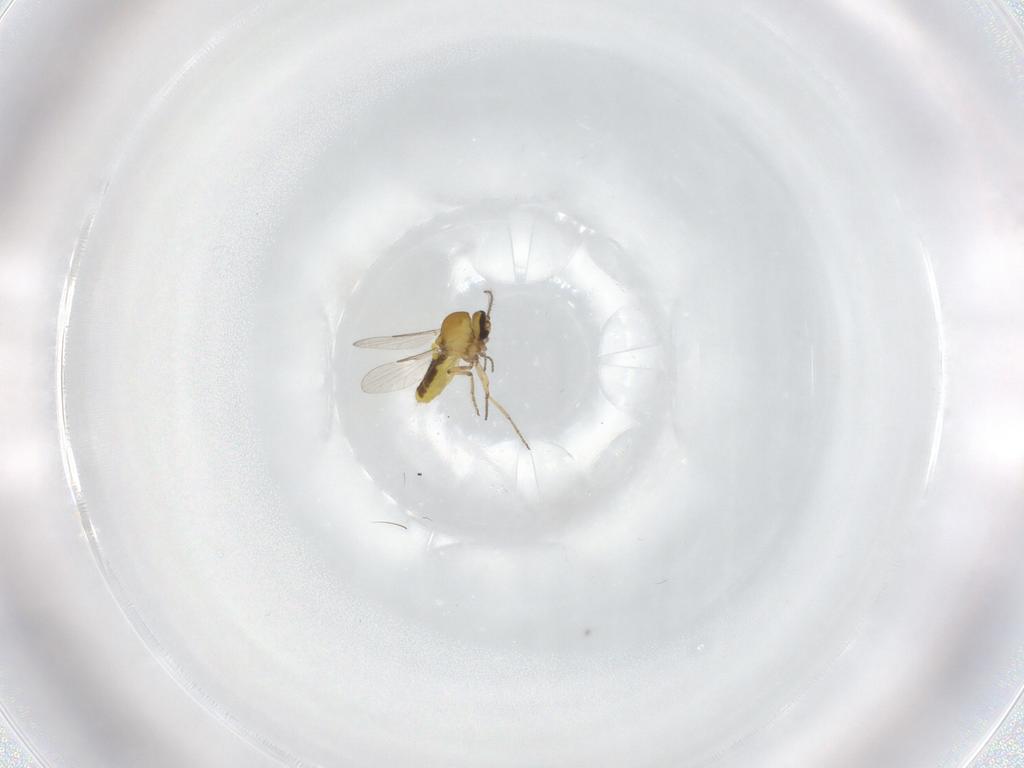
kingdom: Animalia
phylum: Arthropoda
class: Insecta
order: Diptera
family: Ceratopogonidae
